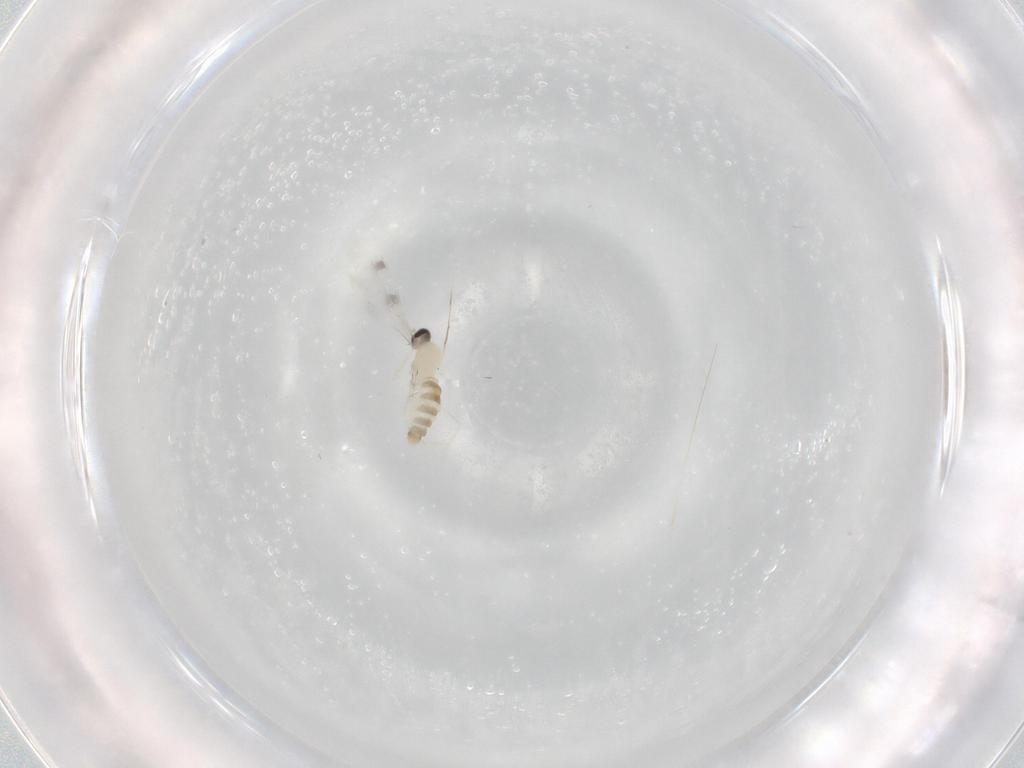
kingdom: Animalia
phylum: Arthropoda
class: Insecta
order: Diptera
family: Cecidomyiidae
